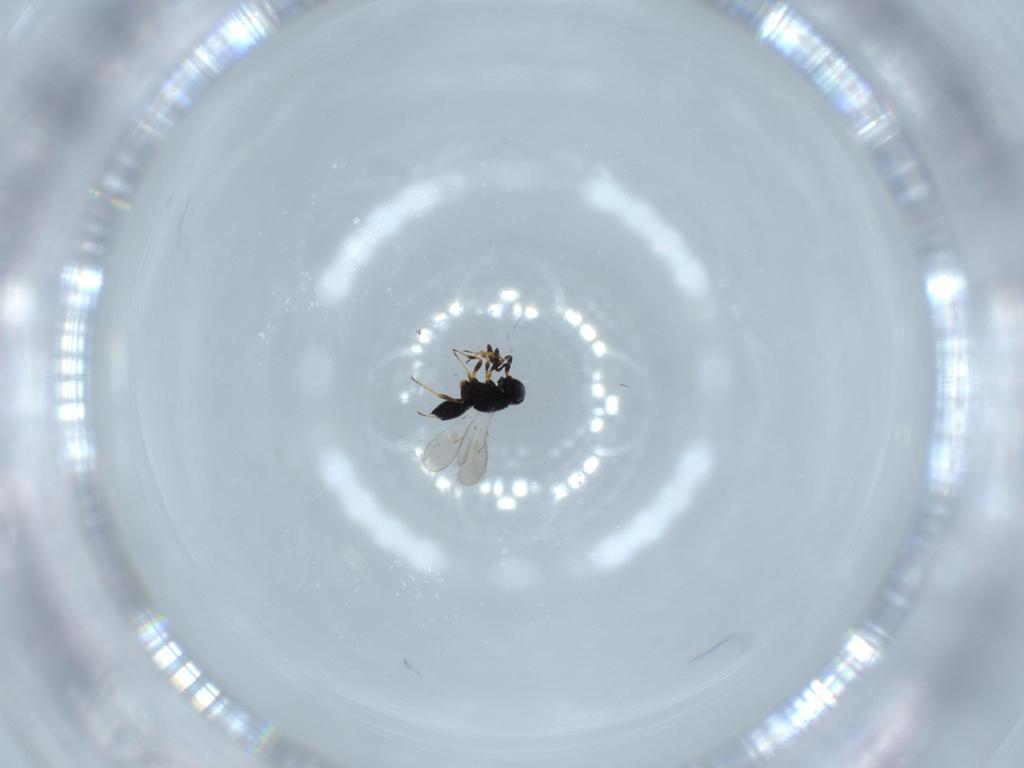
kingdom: Animalia
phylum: Arthropoda
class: Insecta
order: Hymenoptera
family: Scelionidae
